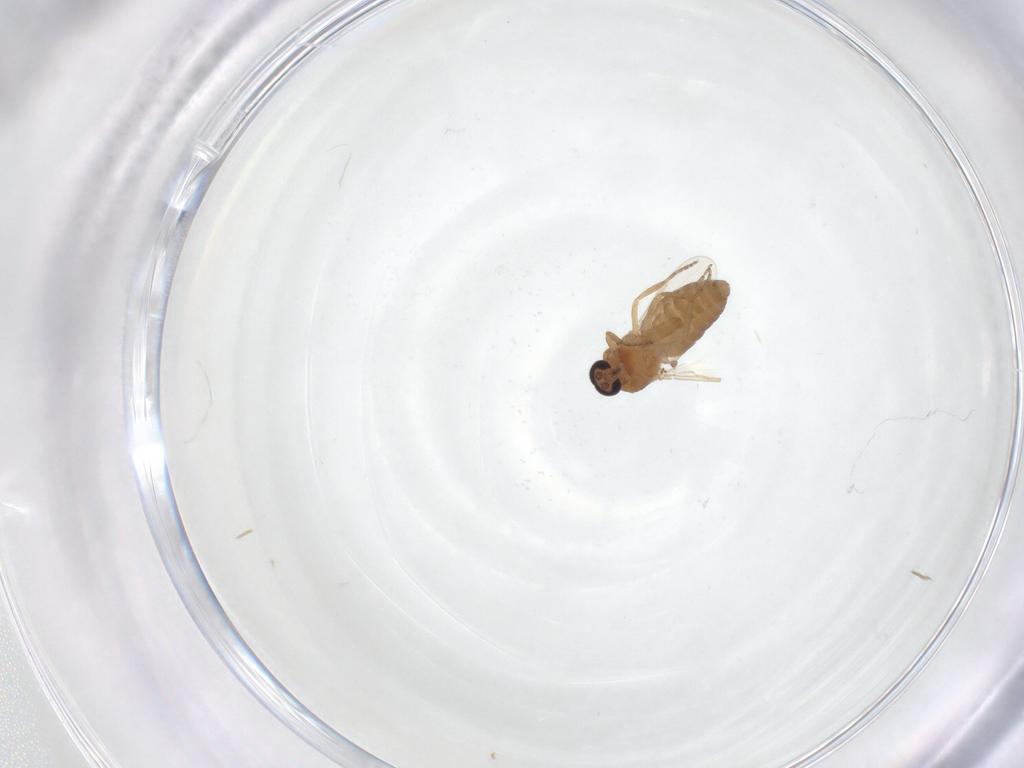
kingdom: Animalia
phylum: Arthropoda
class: Insecta
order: Diptera
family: Ceratopogonidae
